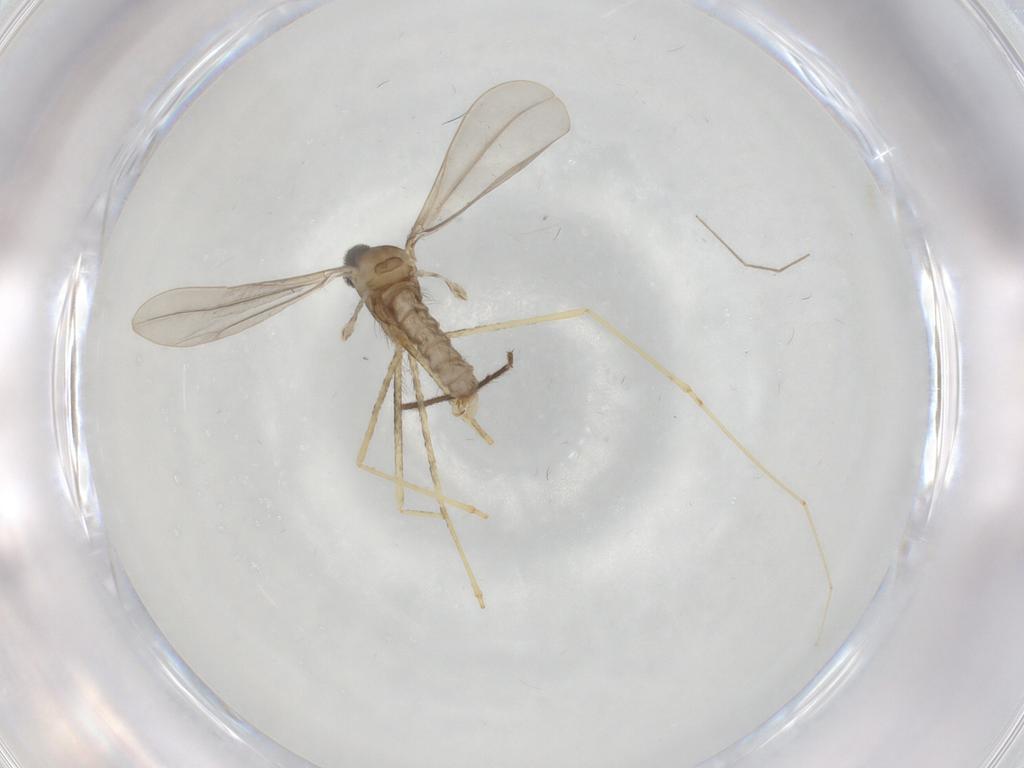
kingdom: Animalia
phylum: Arthropoda
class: Insecta
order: Diptera
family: Cecidomyiidae
